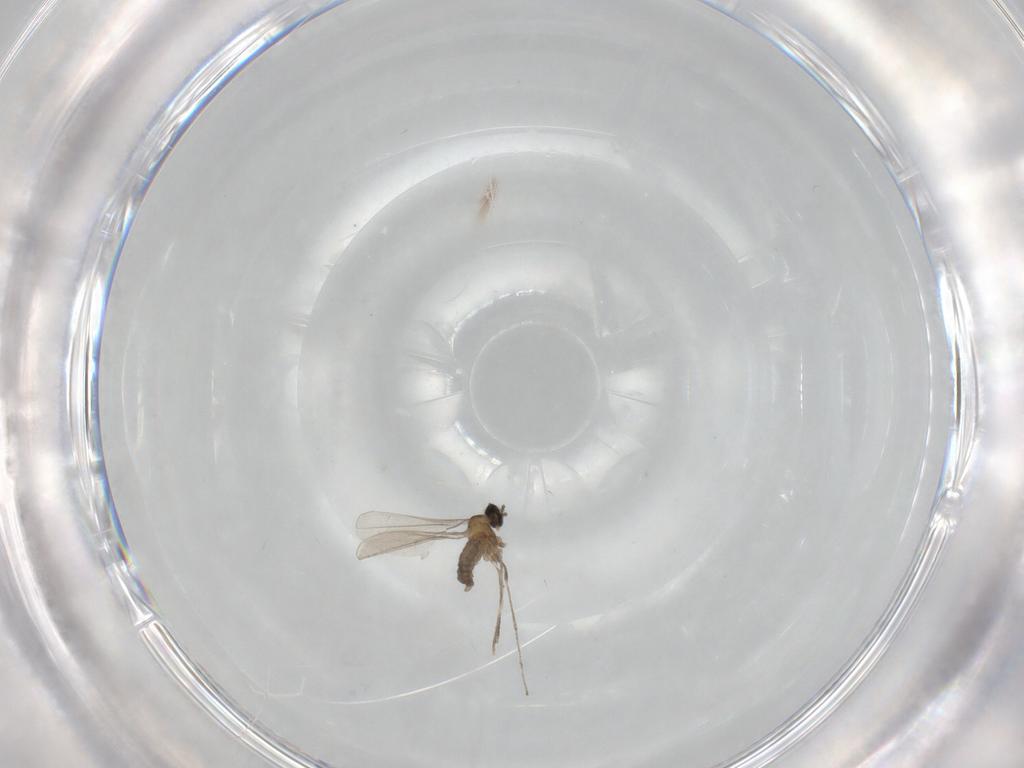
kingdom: Animalia
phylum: Arthropoda
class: Insecta
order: Diptera
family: Cecidomyiidae
